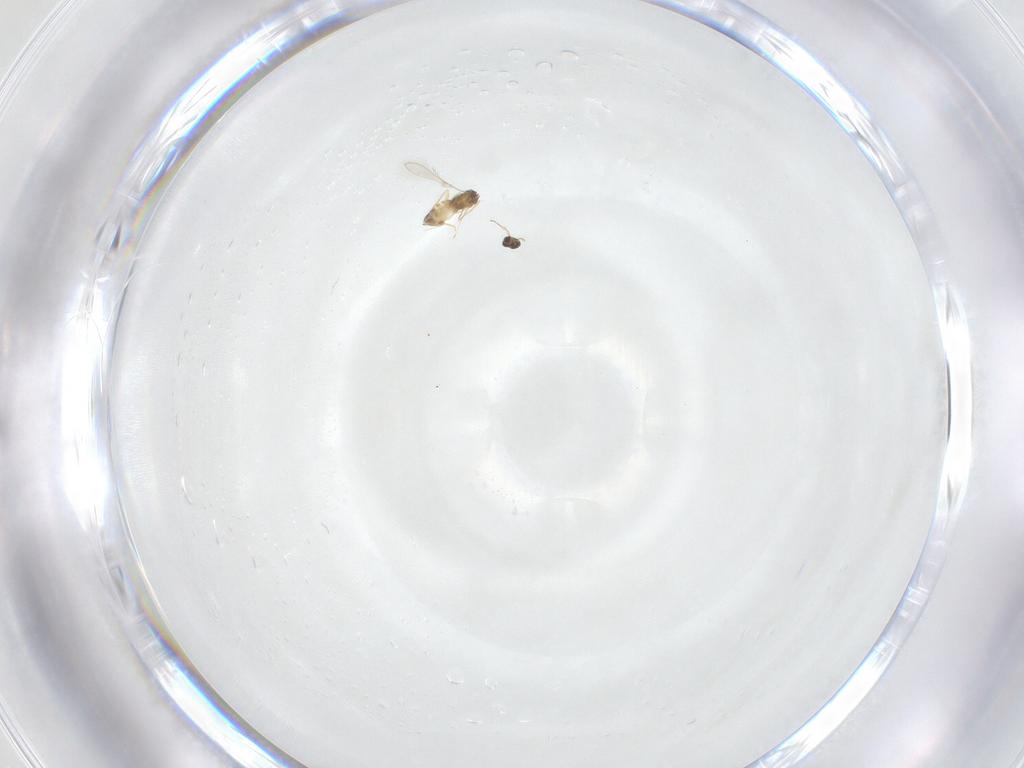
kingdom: Animalia
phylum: Arthropoda
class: Insecta
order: Hymenoptera
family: Mymaridae
